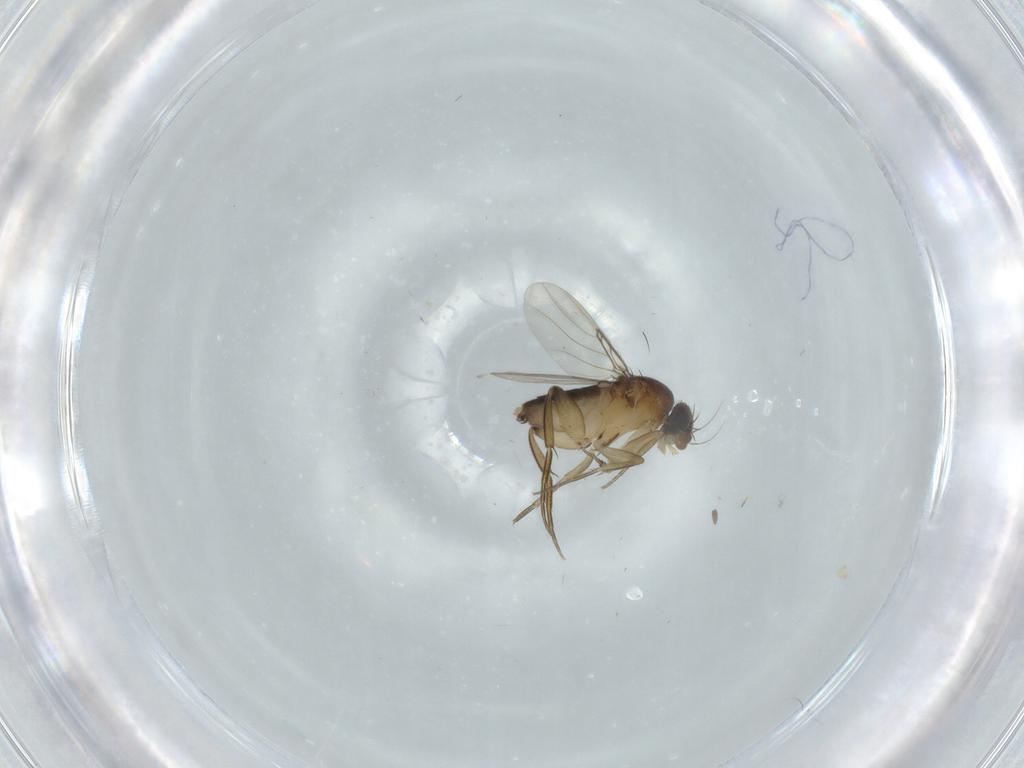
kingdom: Animalia
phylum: Arthropoda
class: Insecta
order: Diptera
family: Phoridae
